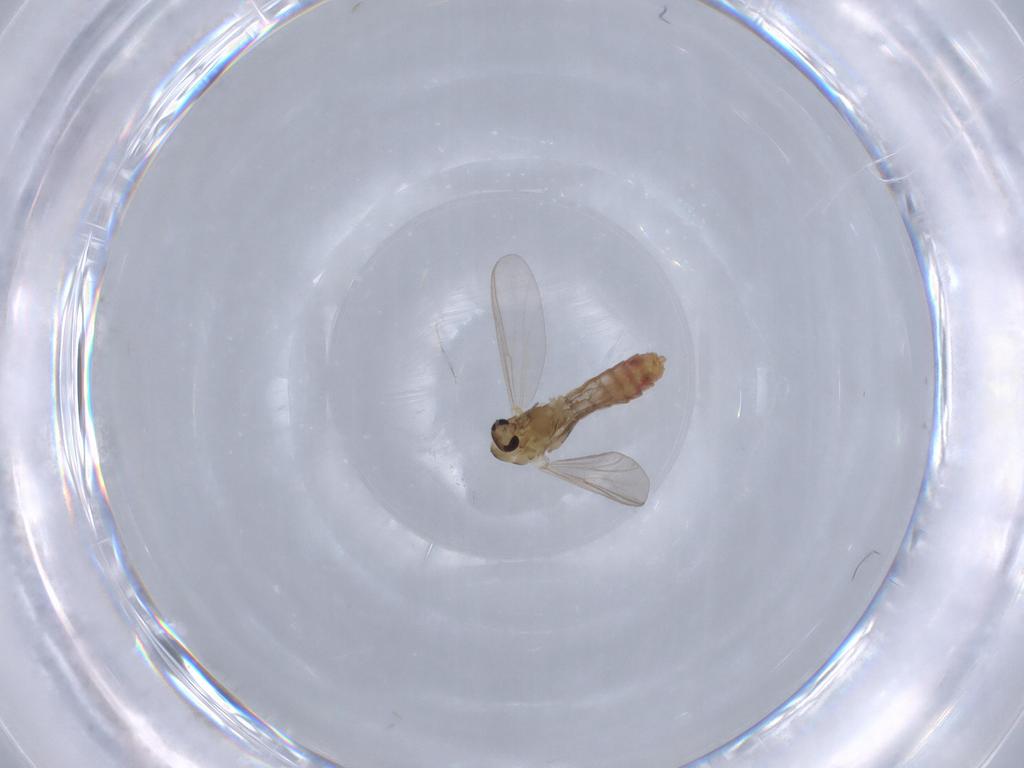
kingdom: Animalia
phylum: Arthropoda
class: Insecta
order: Diptera
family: Chironomidae
